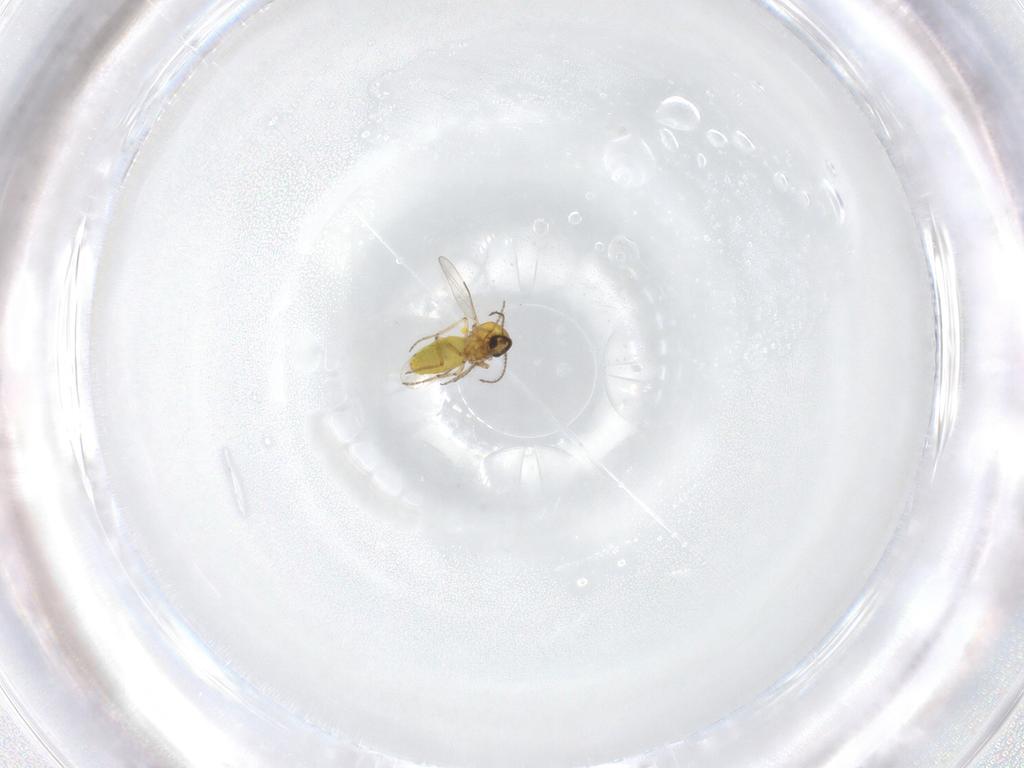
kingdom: Animalia
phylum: Arthropoda
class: Insecta
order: Diptera
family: Ceratopogonidae
